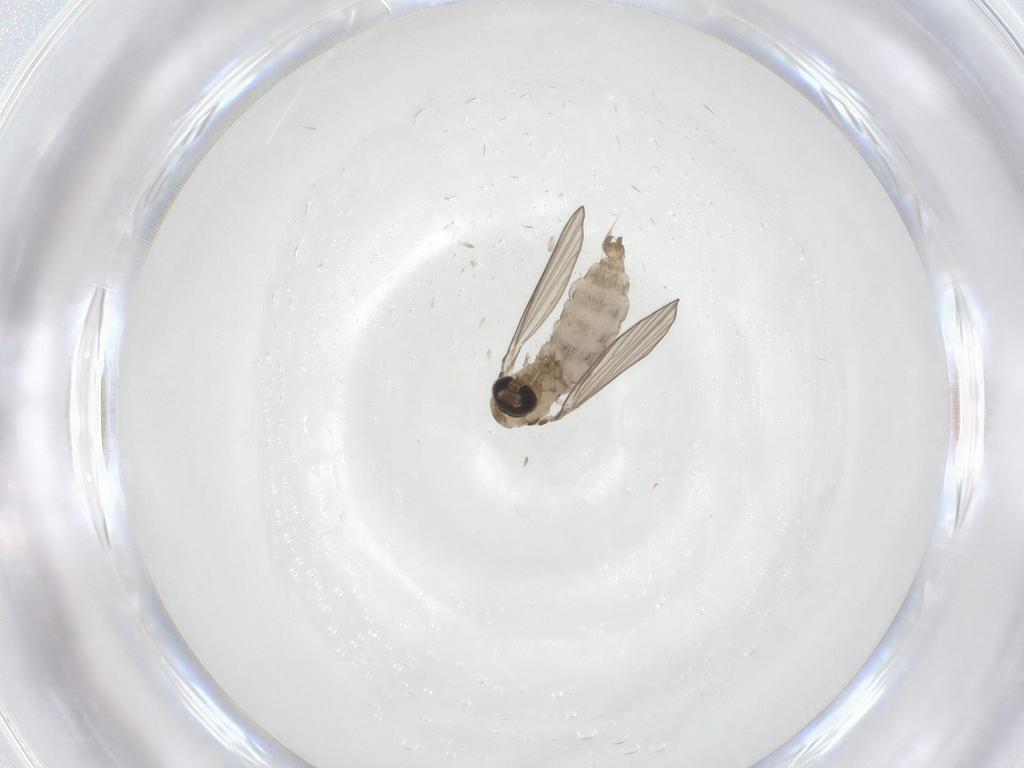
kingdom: Animalia
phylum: Arthropoda
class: Insecta
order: Diptera
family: Psychodidae
